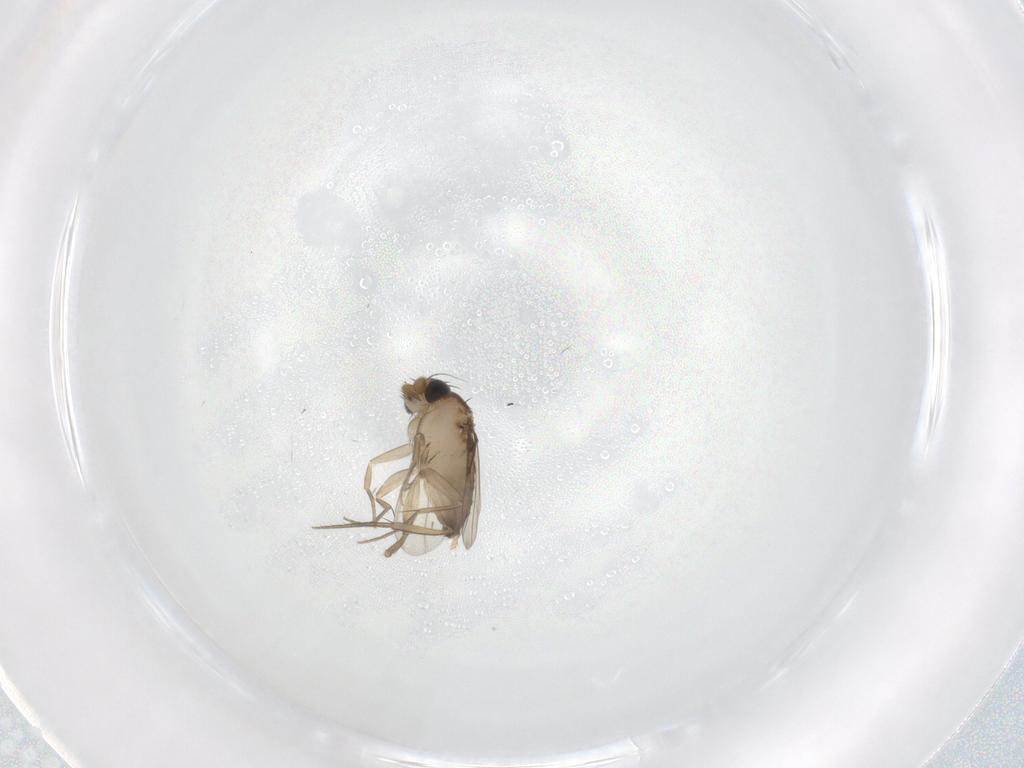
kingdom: Animalia
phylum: Arthropoda
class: Insecta
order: Diptera
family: Phoridae
